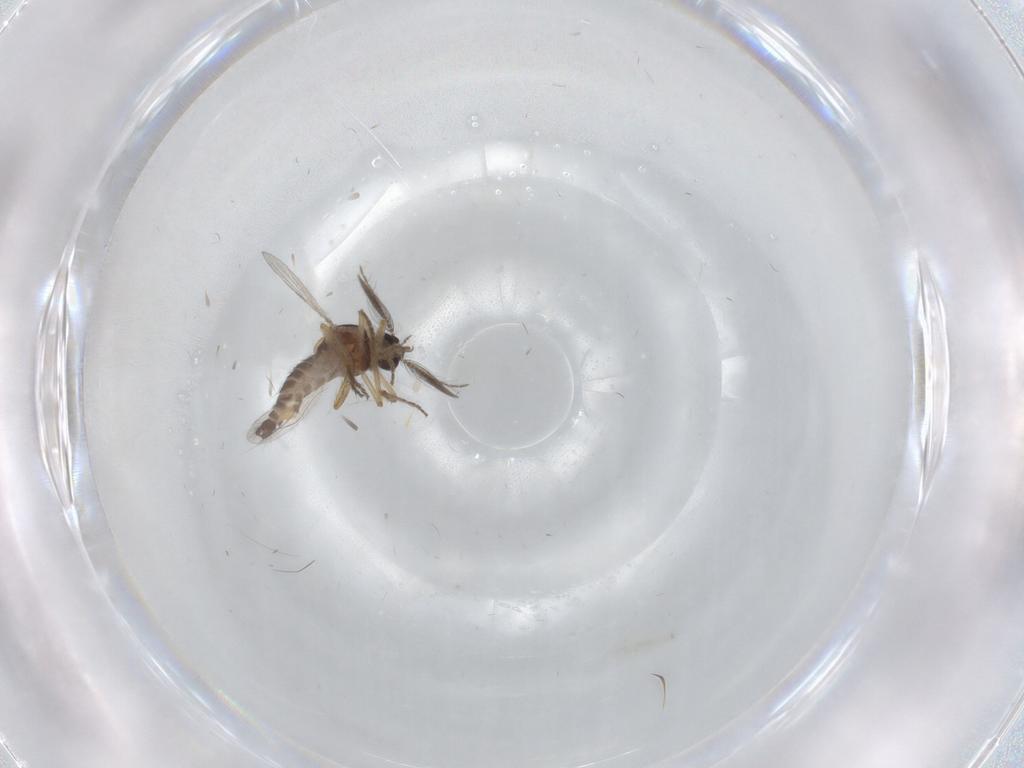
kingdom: Animalia
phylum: Arthropoda
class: Insecta
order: Diptera
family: Ceratopogonidae
